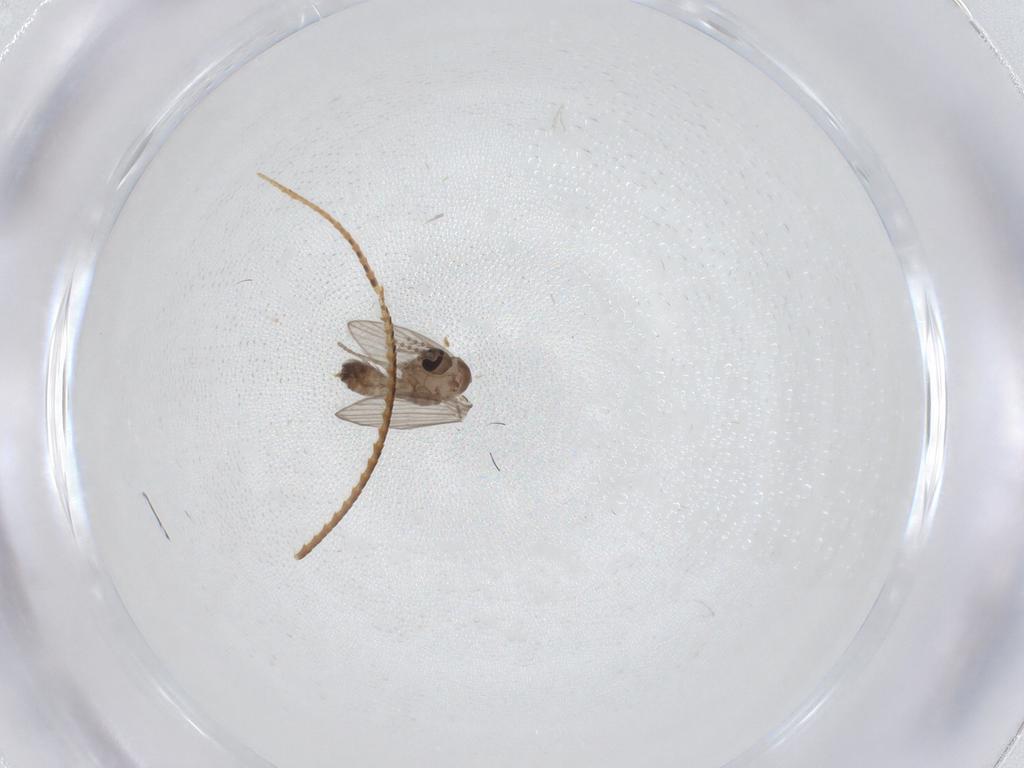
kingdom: Animalia
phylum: Arthropoda
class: Insecta
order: Diptera
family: Psychodidae
